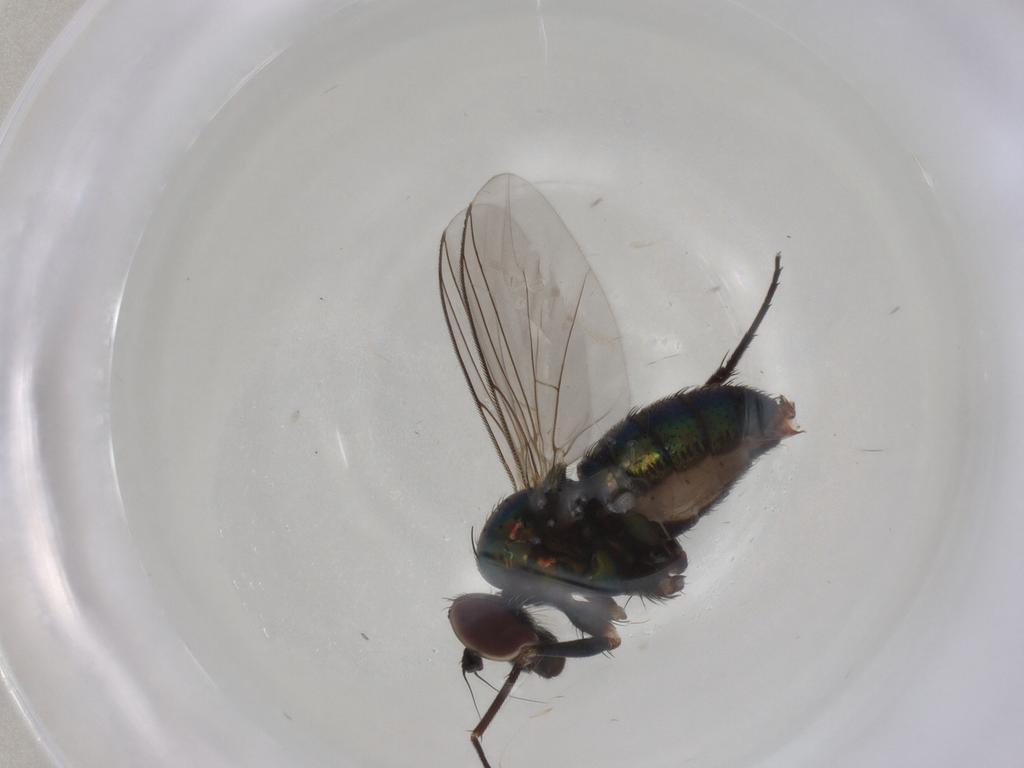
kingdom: Animalia
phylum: Arthropoda
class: Insecta
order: Diptera
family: Dolichopodidae
